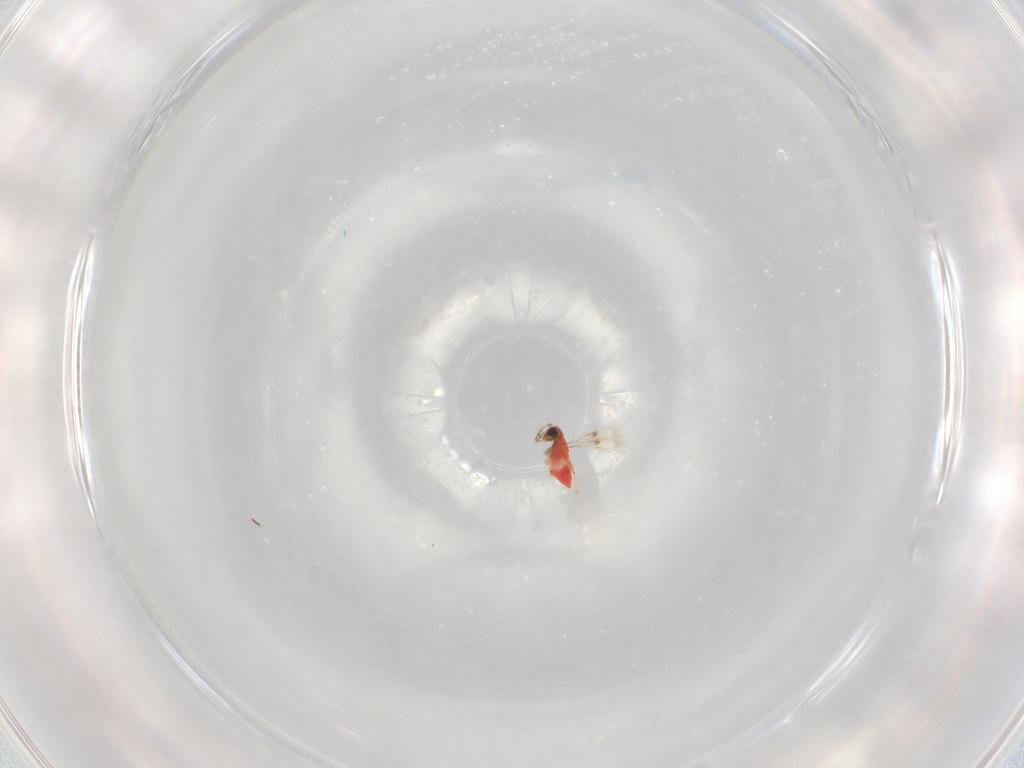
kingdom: Animalia
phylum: Arthropoda
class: Insecta
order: Hymenoptera
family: Trichogrammatidae
